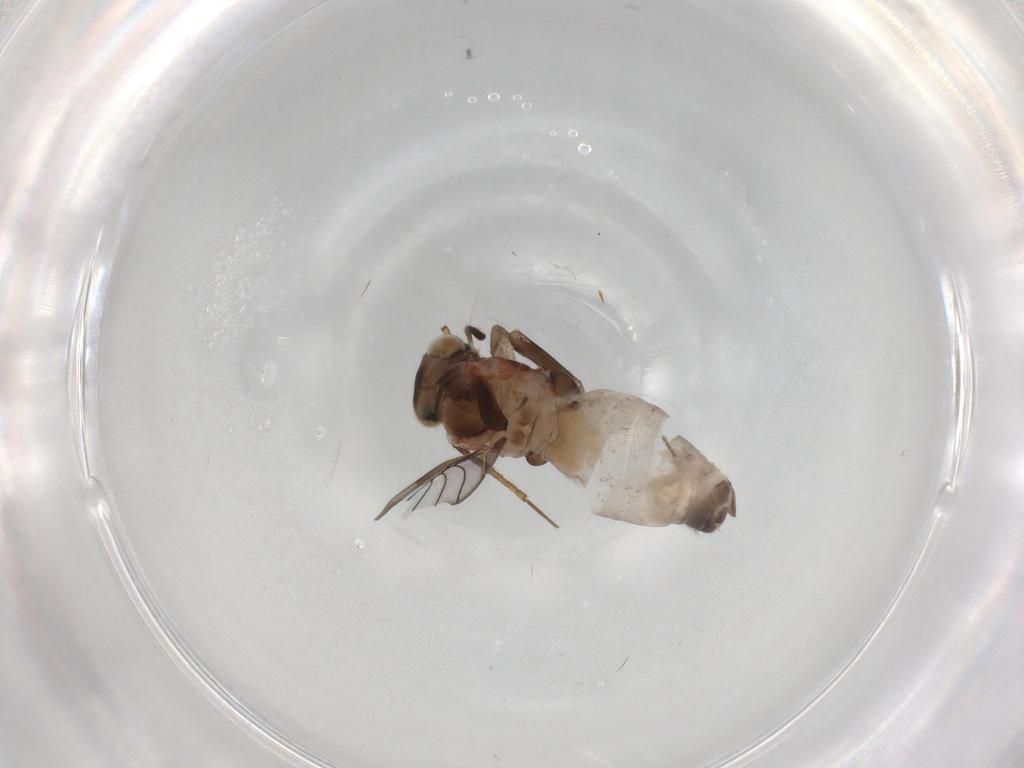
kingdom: Animalia
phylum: Arthropoda
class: Insecta
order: Psocodea
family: Lepidopsocidae
